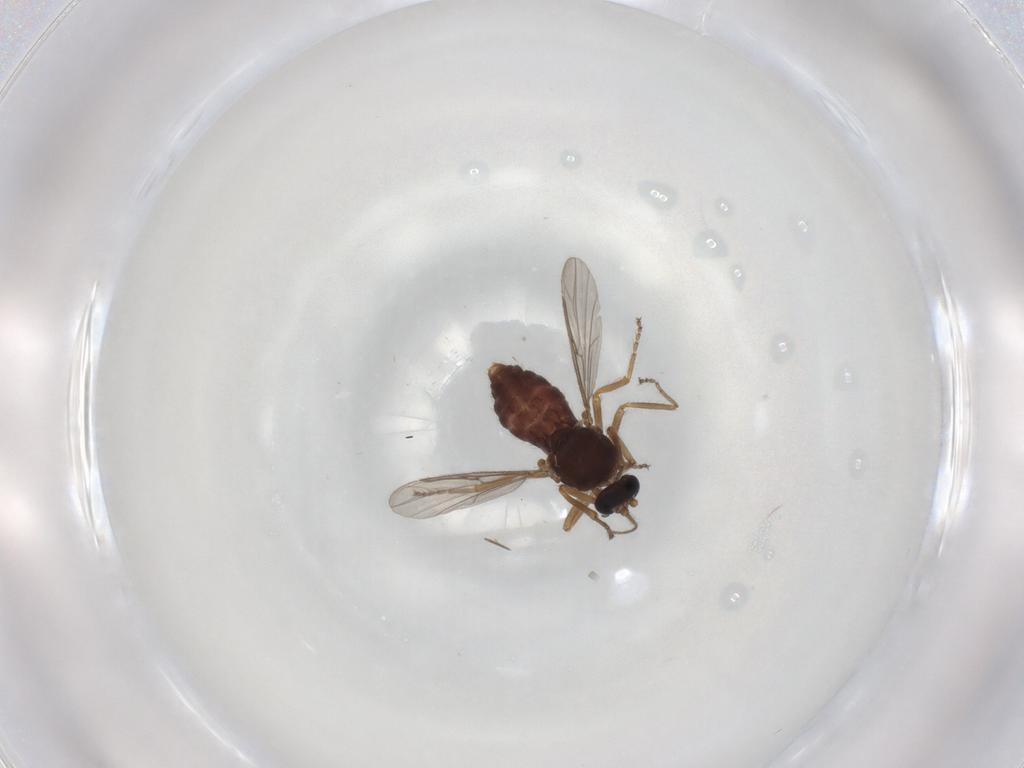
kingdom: Animalia
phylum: Arthropoda
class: Insecta
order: Diptera
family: Ceratopogonidae
